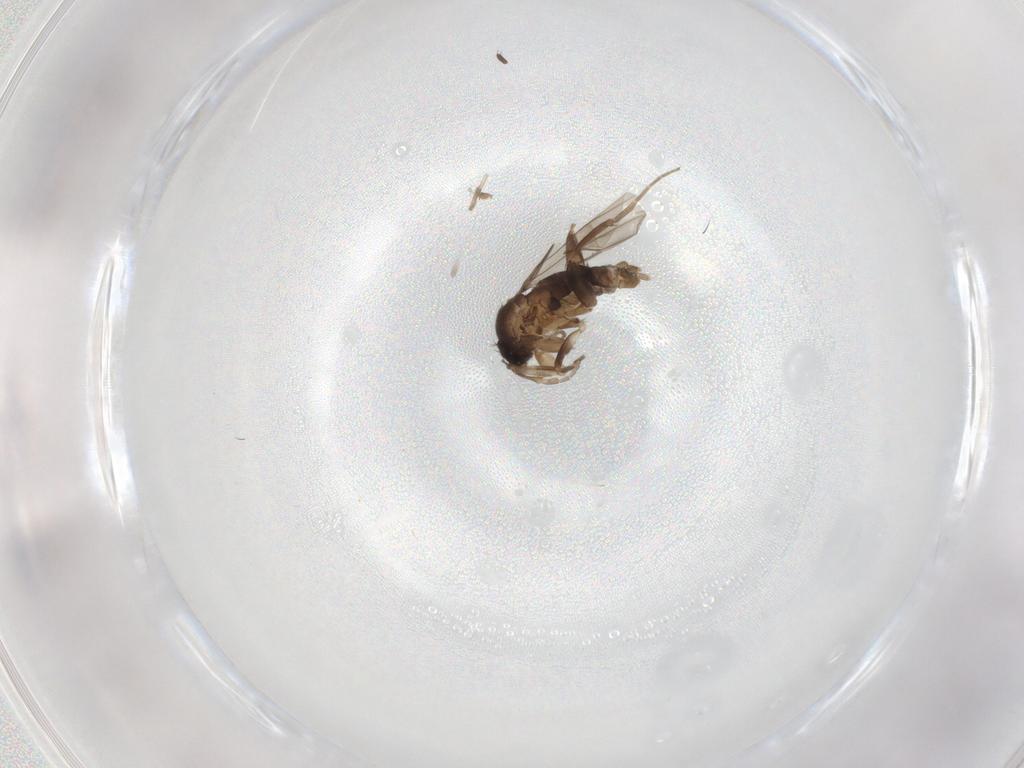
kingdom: Animalia
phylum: Arthropoda
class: Insecta
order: Diptera
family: Phoridae
